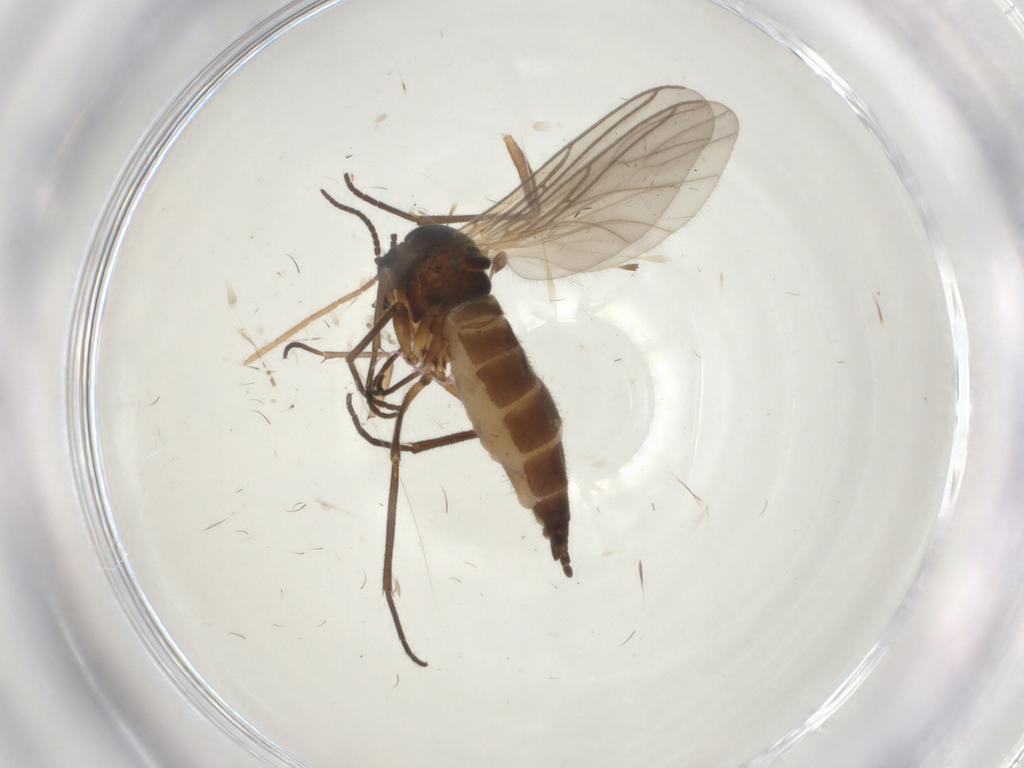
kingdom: Animalia
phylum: Arthropoda
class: Insecta
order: Diptera
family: Sciaridae
